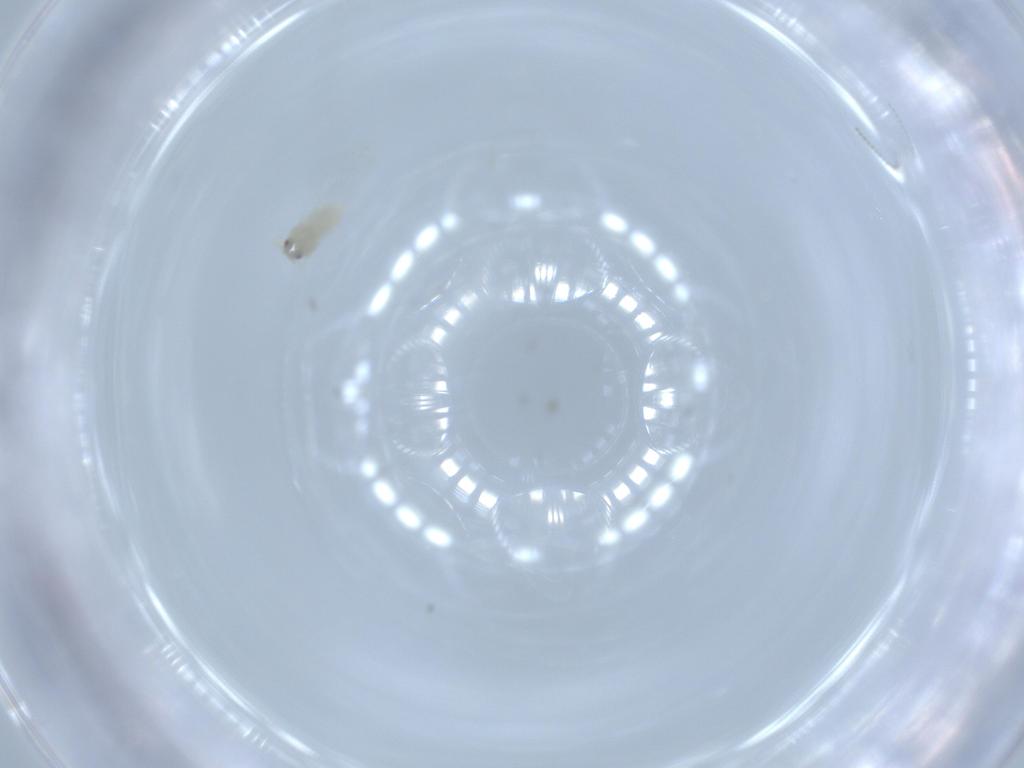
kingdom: Animalia
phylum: Arthropoda
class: Insecta
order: Hemiptera
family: Aleyrodidae
